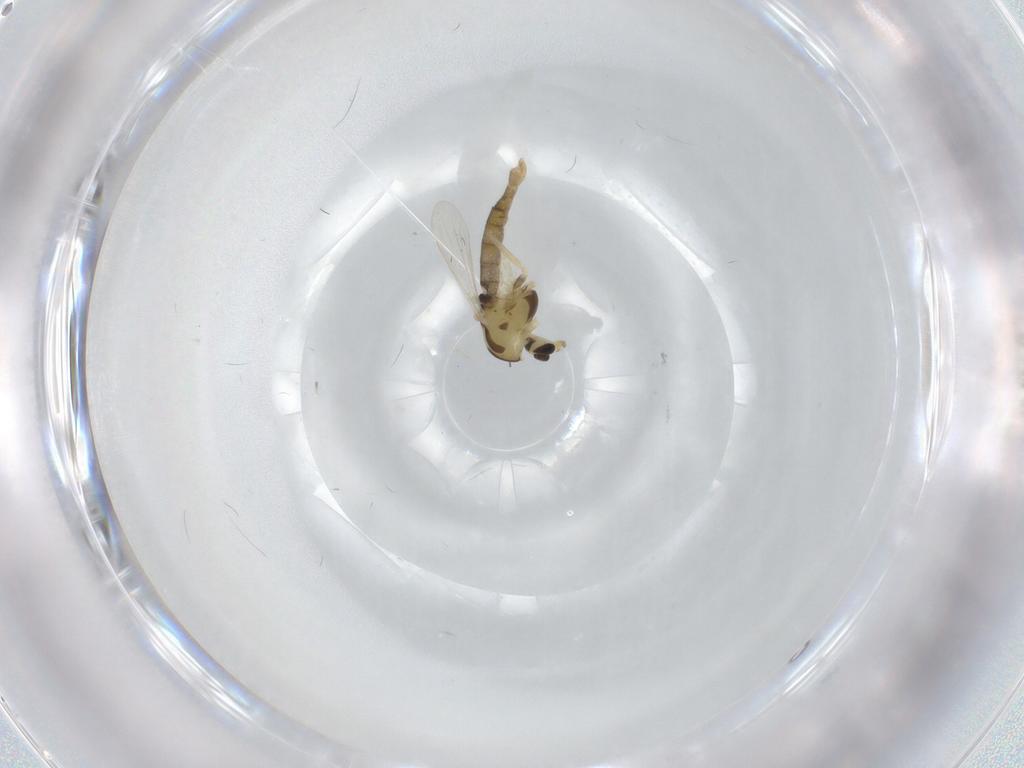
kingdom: Animalia
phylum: Arthropoda
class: Insecta
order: Diptera
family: Chironomidae
